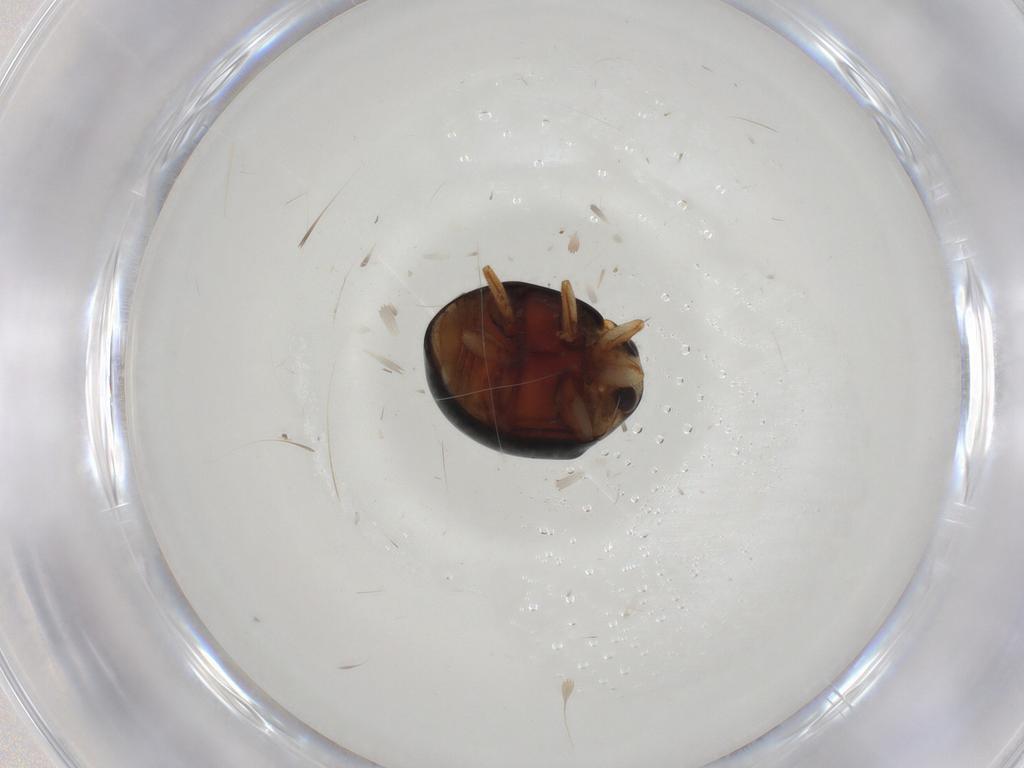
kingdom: Animalia
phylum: Arthropoda
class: Insecta
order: Coleoptera
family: Coccinellidae
